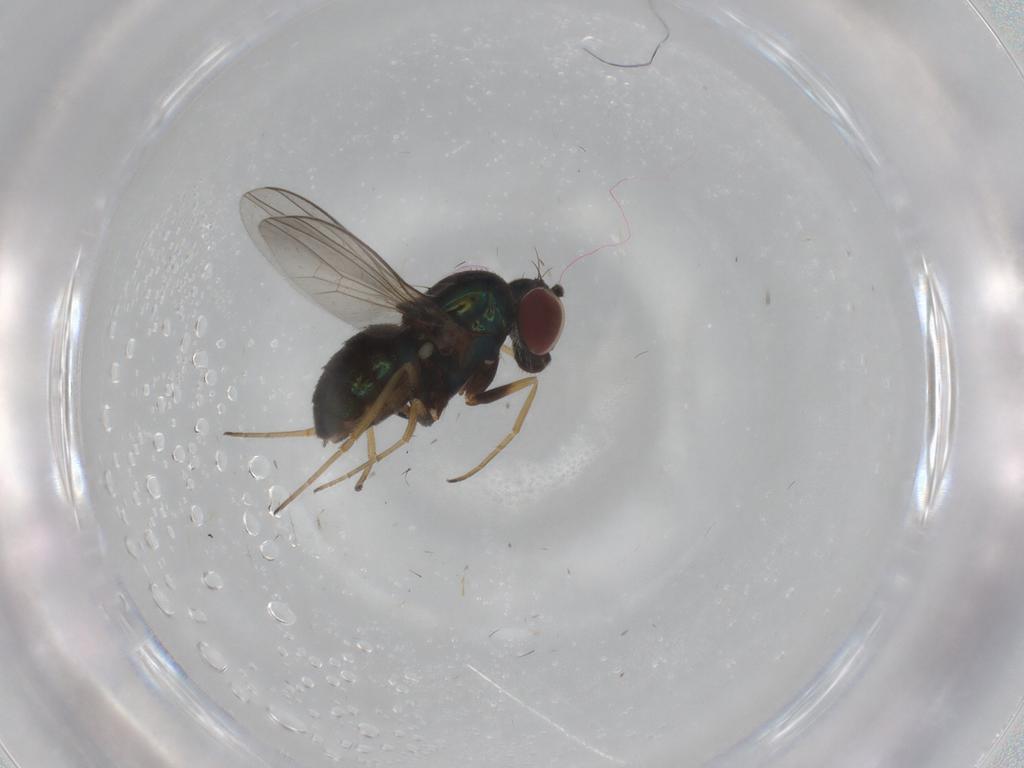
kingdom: Animalia
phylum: Arthropoda
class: Insecta
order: Diptera
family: Dolichopodidae
